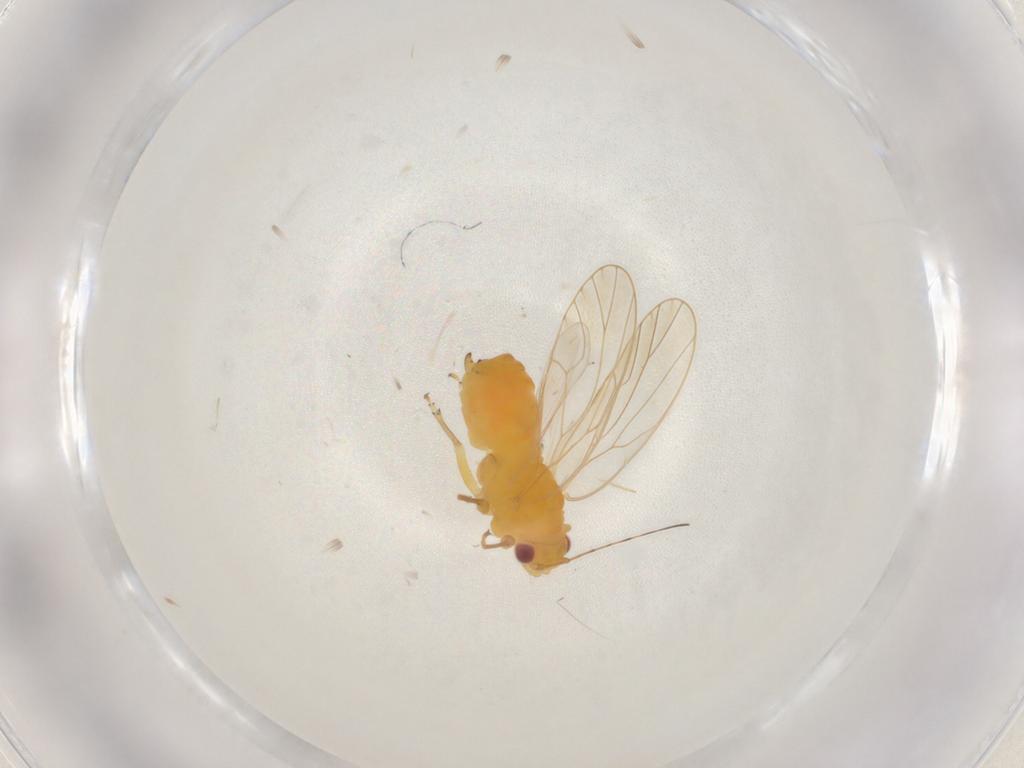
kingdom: Animalia
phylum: Arthropoda
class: Insecta
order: Hemiptera
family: Psyllidae
